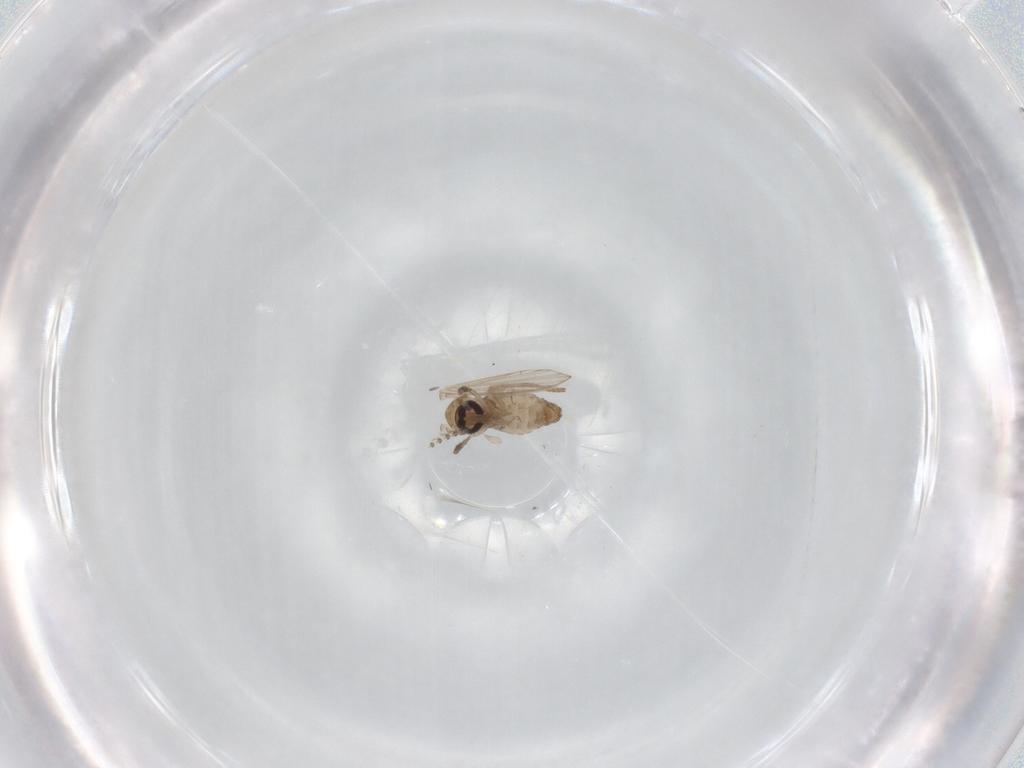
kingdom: Animalia
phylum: Arthropoda
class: Insecta
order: Diptera
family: Psychodidae
